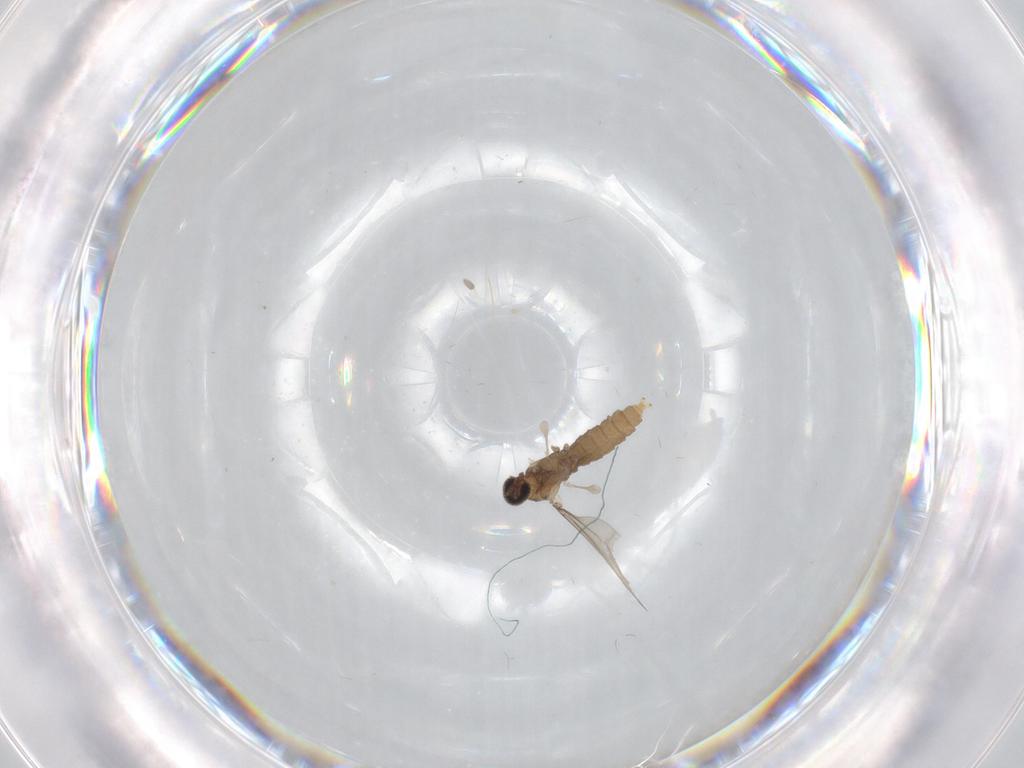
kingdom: Animalia
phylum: Arthropoda
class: Insecta
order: Diptera
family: Cecidomyiidae
